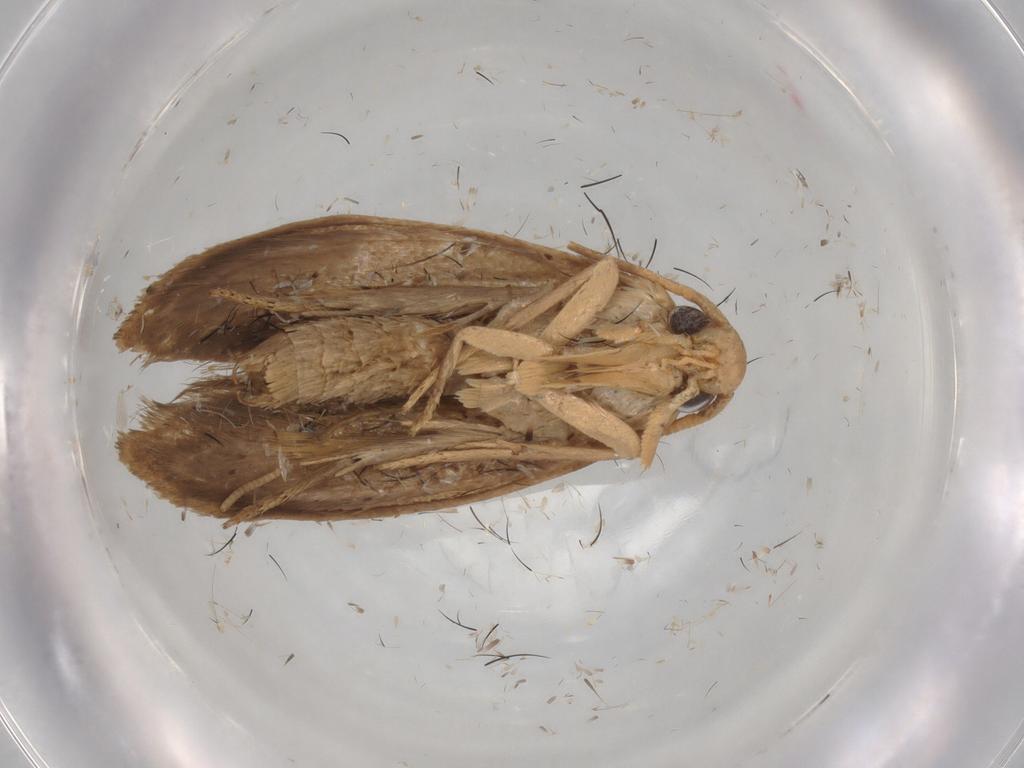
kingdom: Animalia
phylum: Arthropoda
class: Insecta
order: Lepidoptera
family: Tineidae
